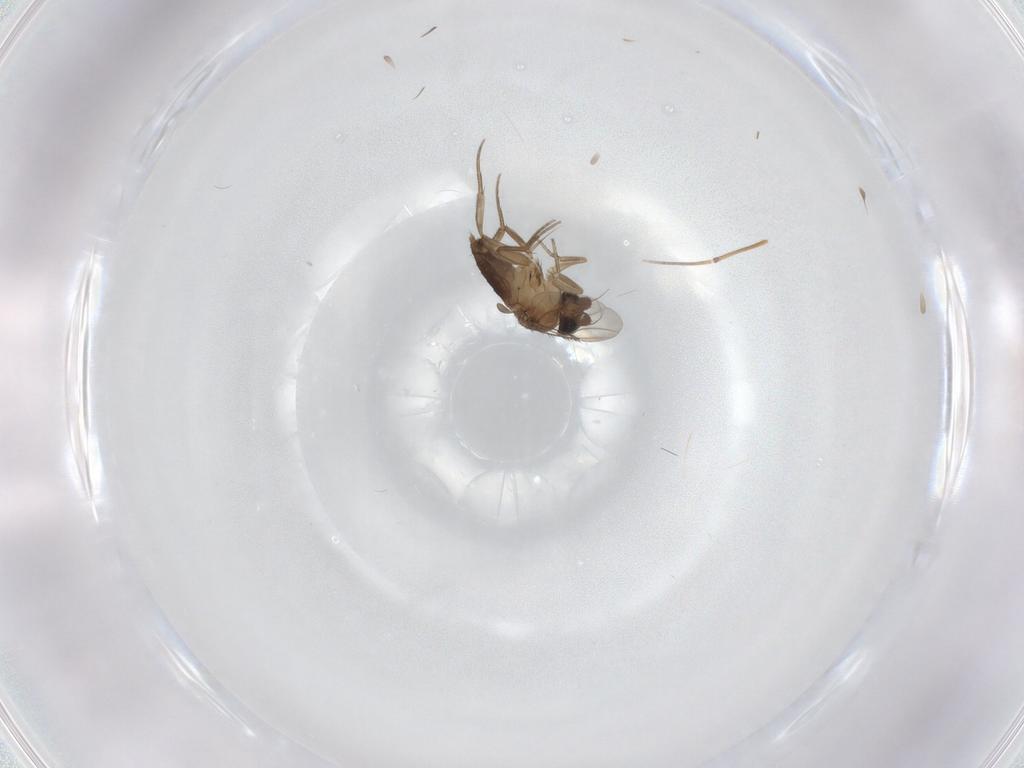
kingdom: Animalia
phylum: Arthropoda
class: Insecta
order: Diptera
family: Phoridae
